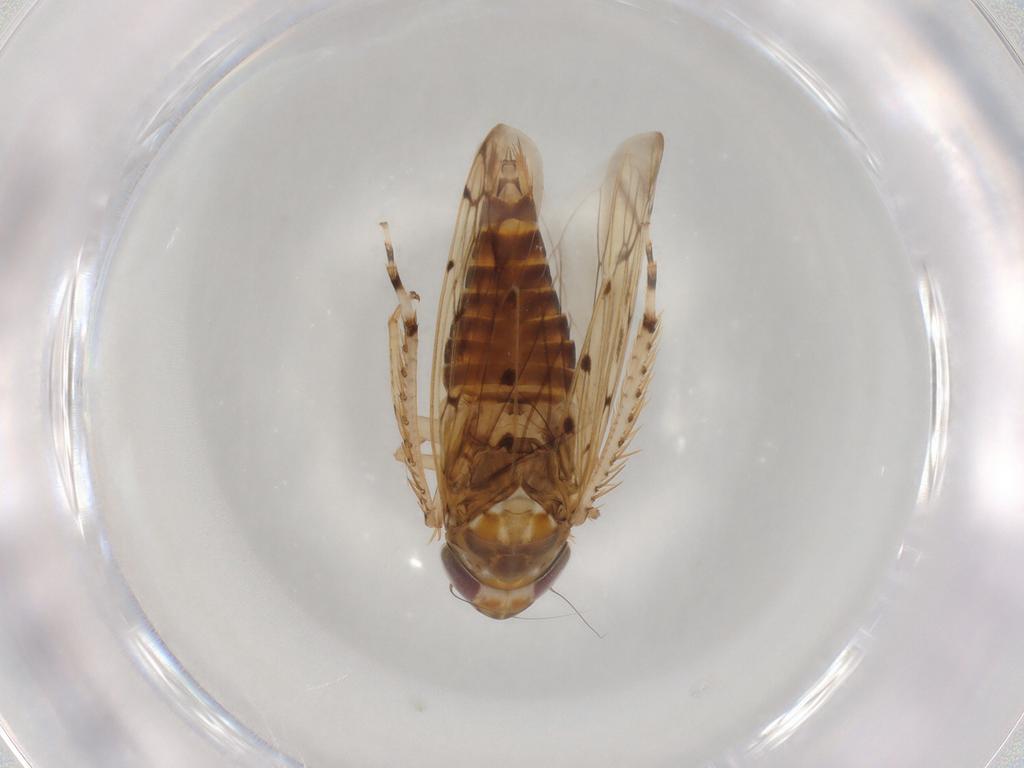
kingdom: Animalia
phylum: Arthropoda
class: Insecta
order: Hemiptera
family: Cicadellidae
